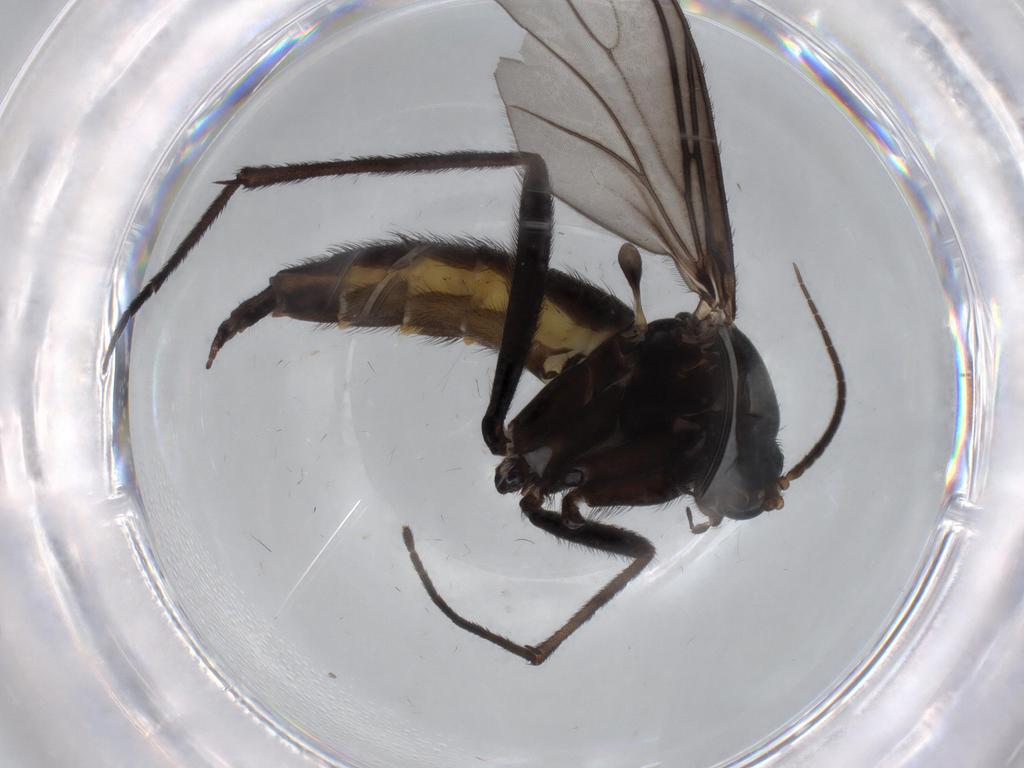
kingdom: Animalia
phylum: Arthropoda
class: Insecta
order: Diptera
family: Sciaridae
